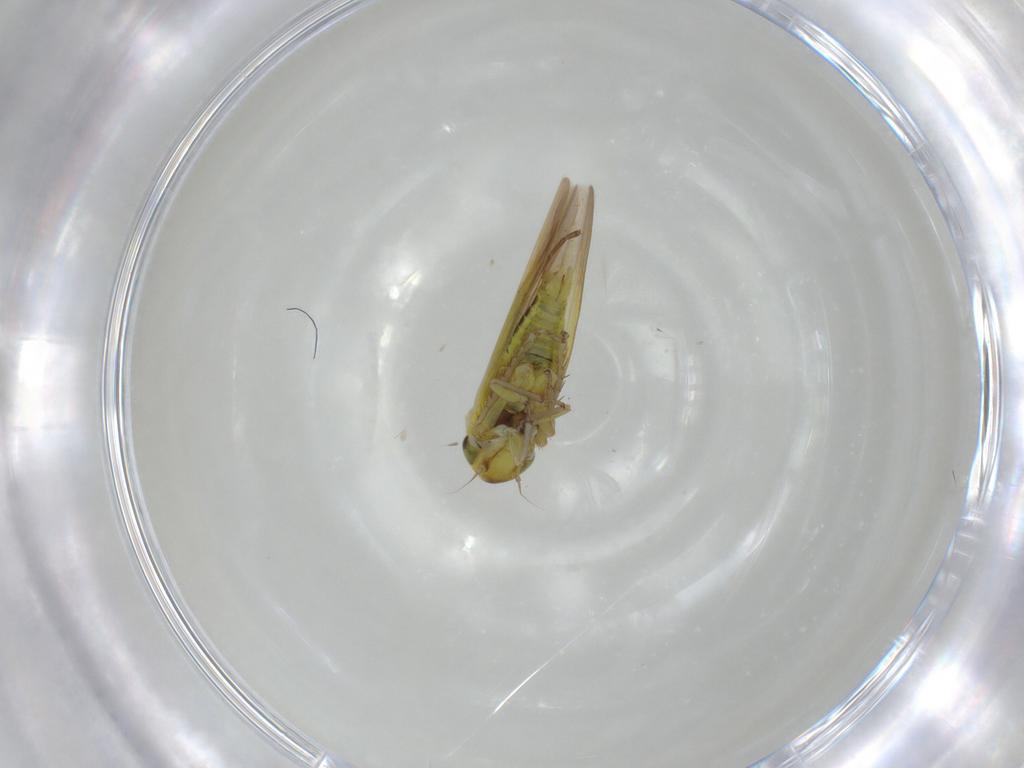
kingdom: Animalia
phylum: Arthropoda
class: Insecta
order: Hemiptera
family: Cicadellidae
